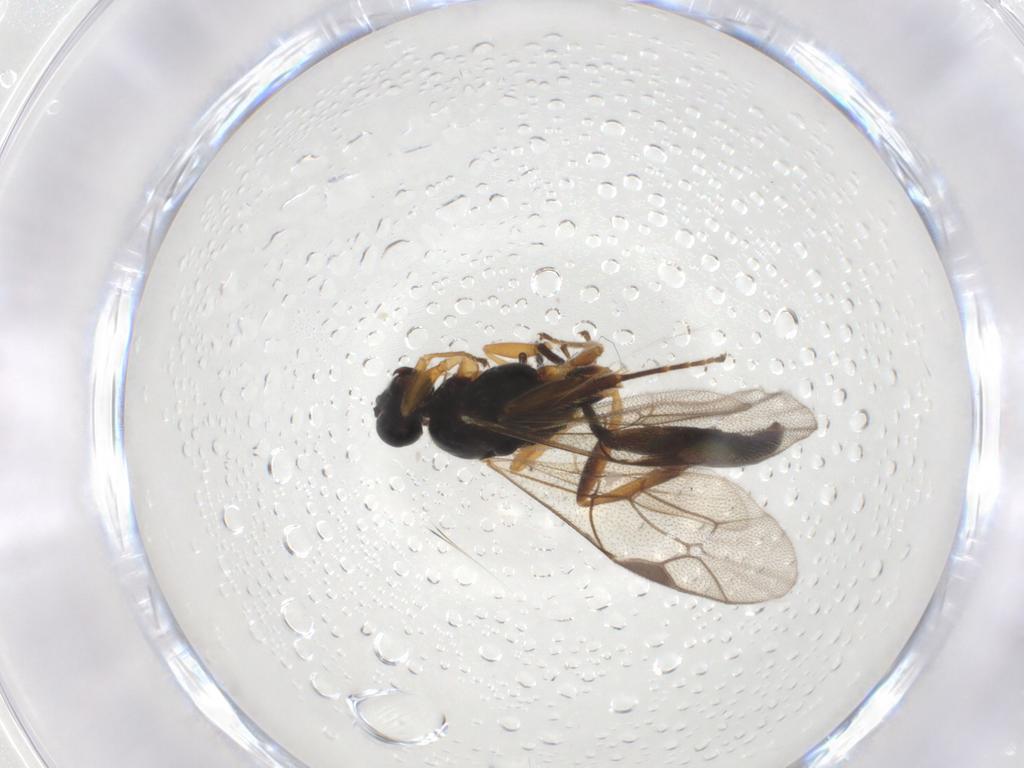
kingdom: Animalia
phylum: Arthropoda
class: Insecta
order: Hymenoptera
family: Ichneumonidae
